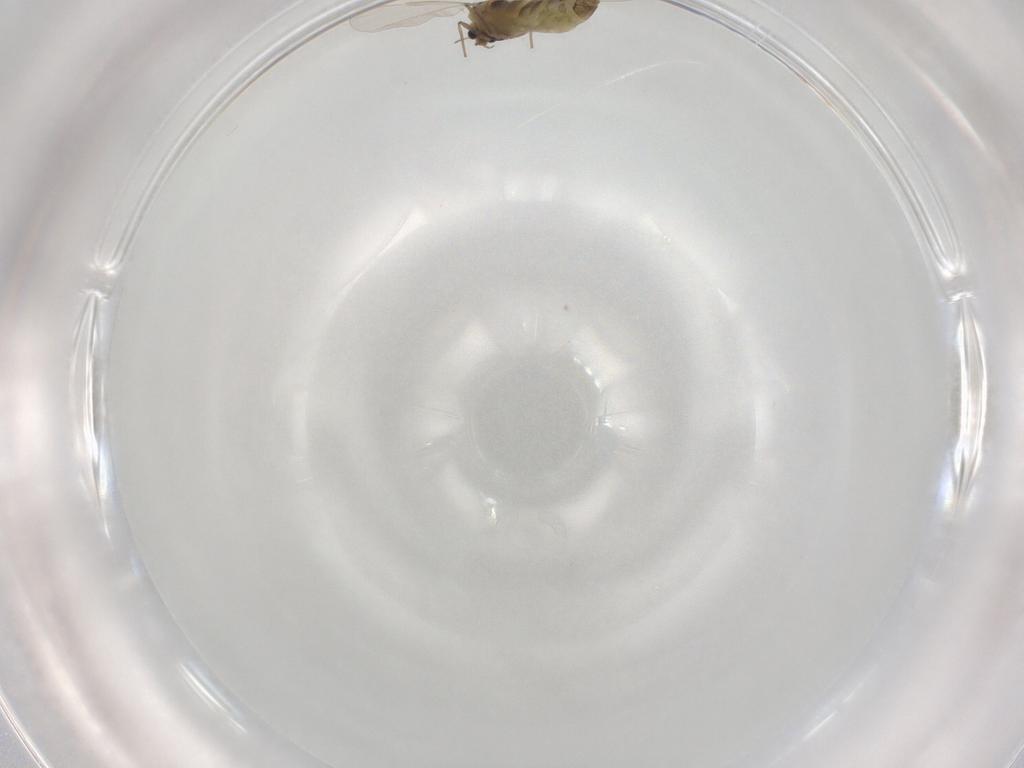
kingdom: Animalia
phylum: Arthropoda
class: Insecta
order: Diptera
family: Chironomidae
